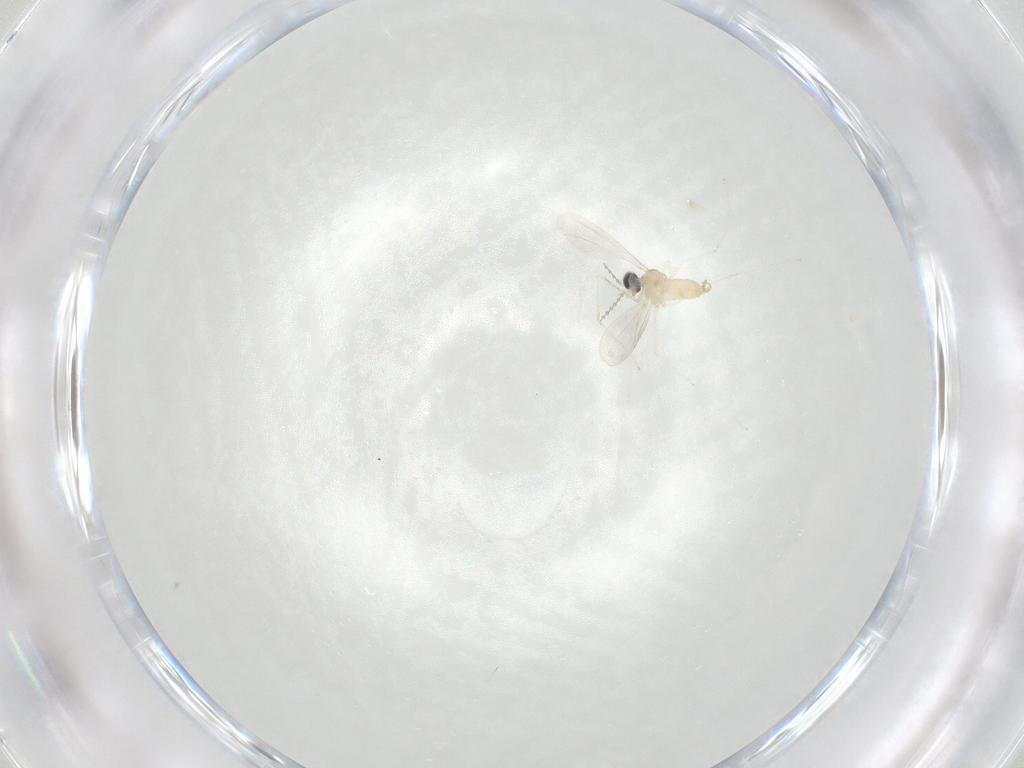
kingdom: Animalia
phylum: Arthropoda
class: Insecta
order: Diptera
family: Cecidomyiidae
